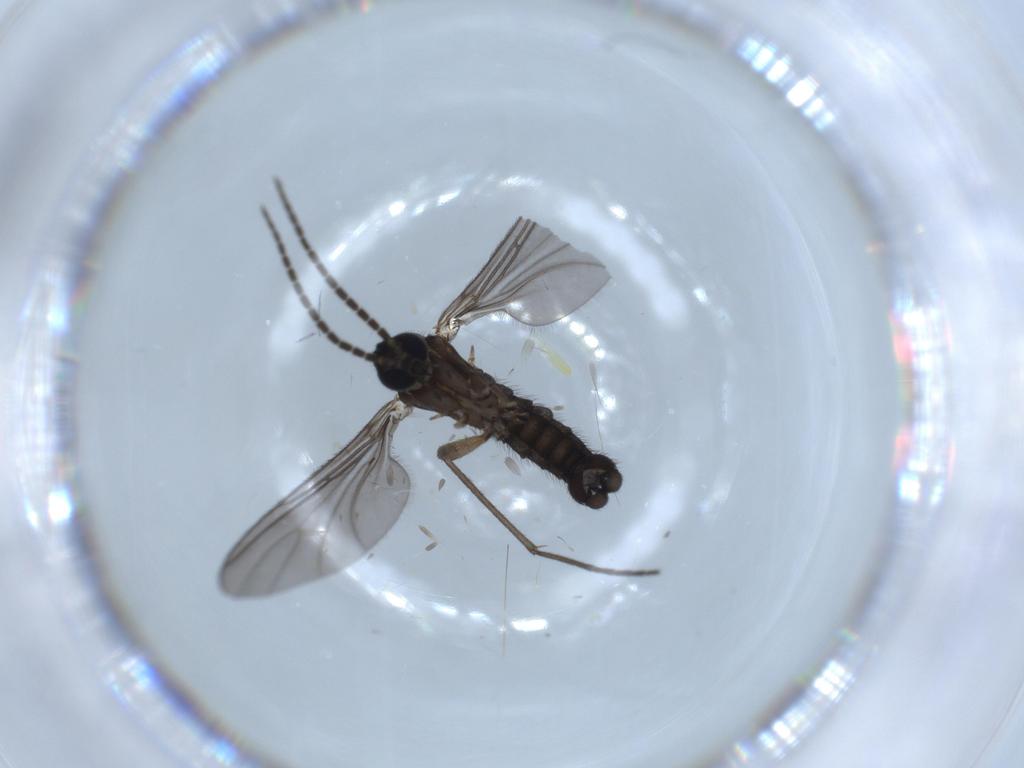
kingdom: Animalia
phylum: Arthropoda
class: Insecta
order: Diptera
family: Sciaridae
